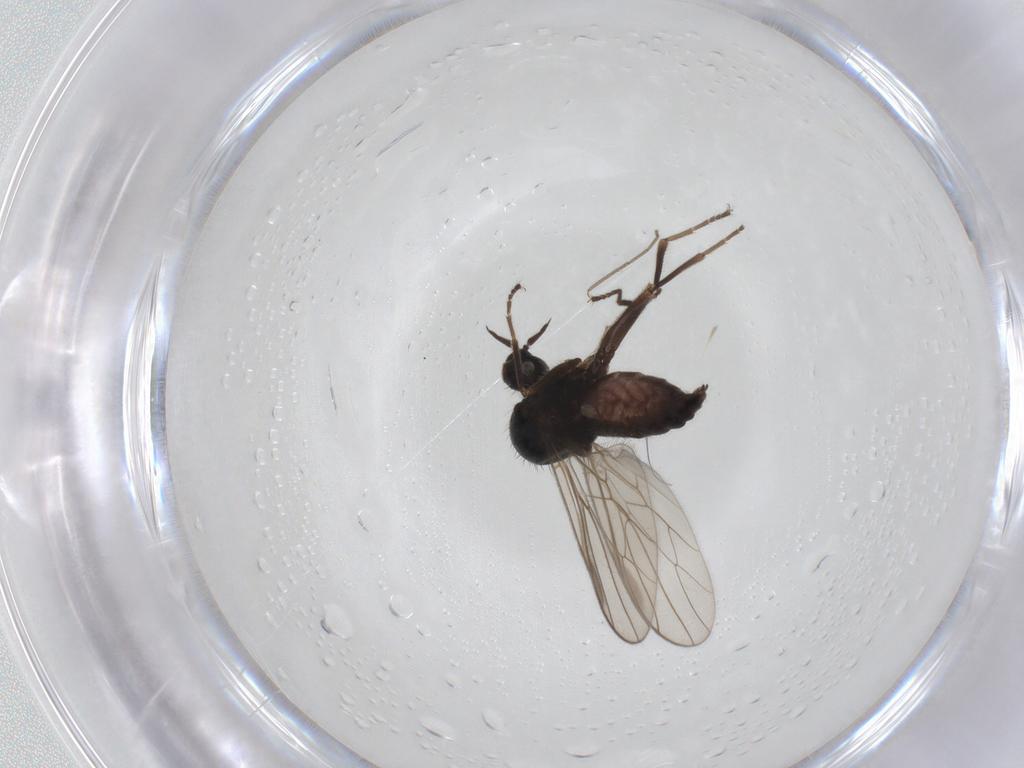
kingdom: Animalia
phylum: Arthropoda
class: Insecta
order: Diptera
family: Hybotidae
